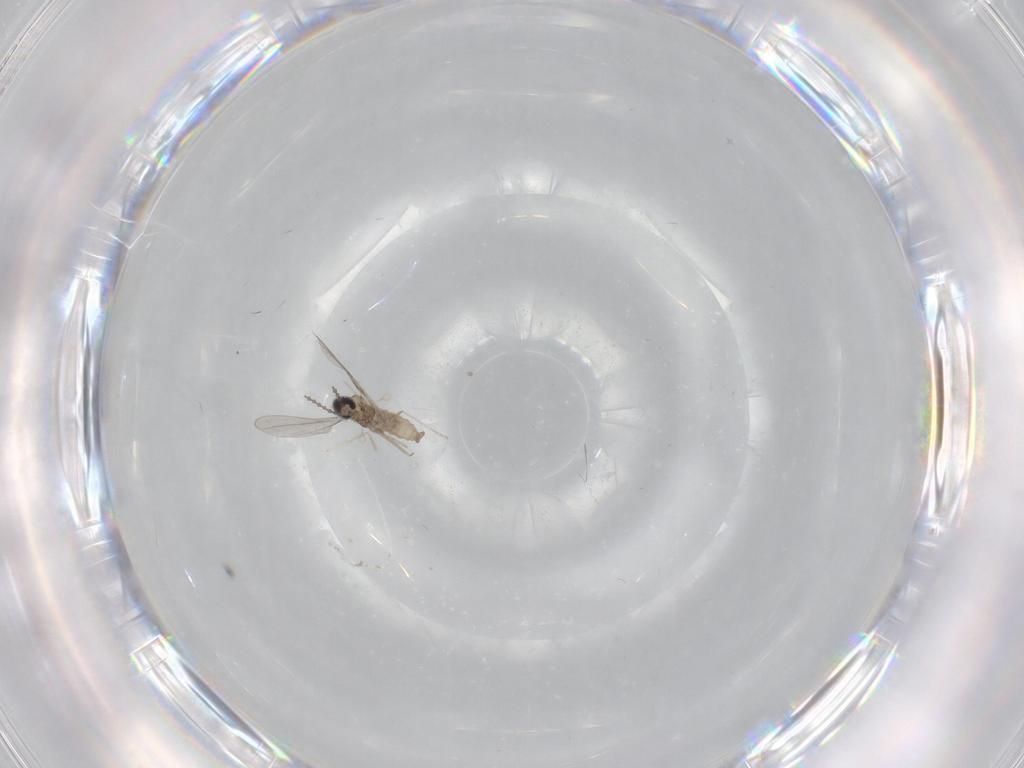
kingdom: Animalia
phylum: Arthropoda
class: Insecta
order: Diptera
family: Cecidomyiidae
